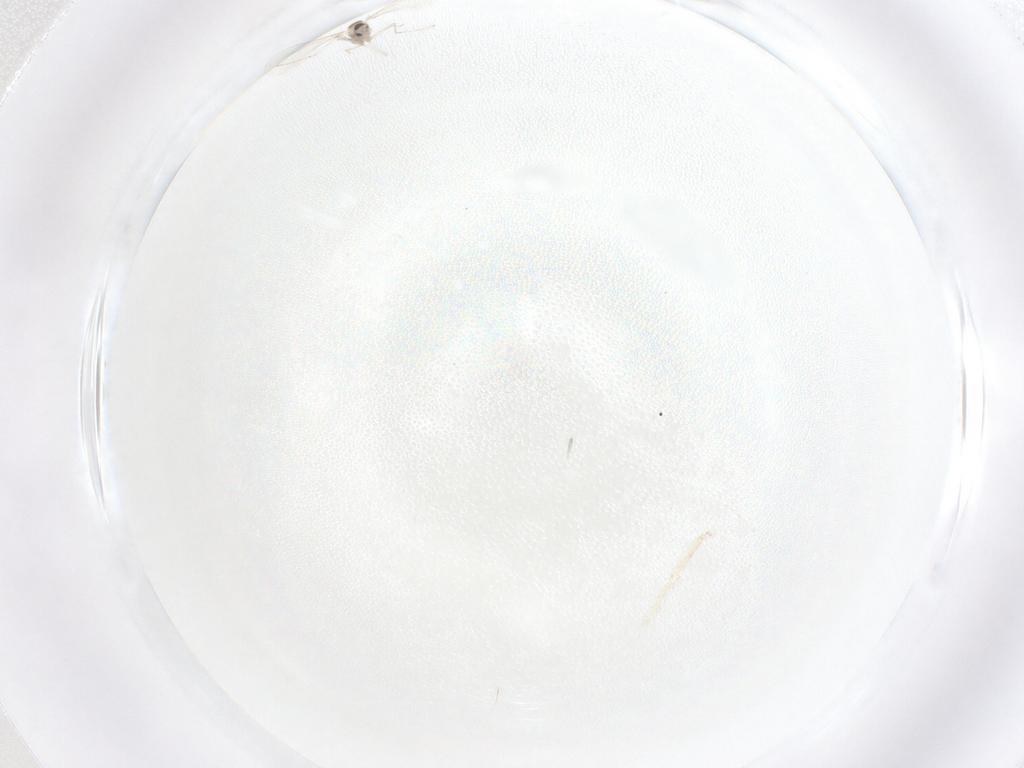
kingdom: Animalia
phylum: Arthropoda
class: Insecta
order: Diptera
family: Cecidomyiidae
